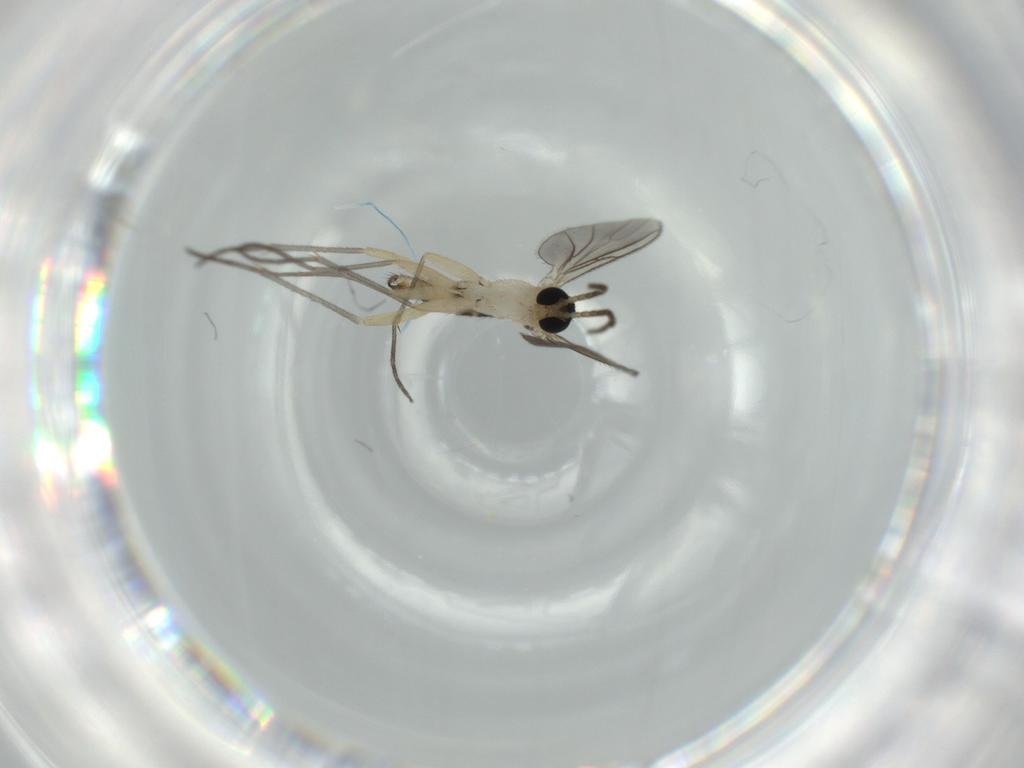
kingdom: Animalia
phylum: Arthropoda
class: Insecta
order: Diptera
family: Sciaridae
